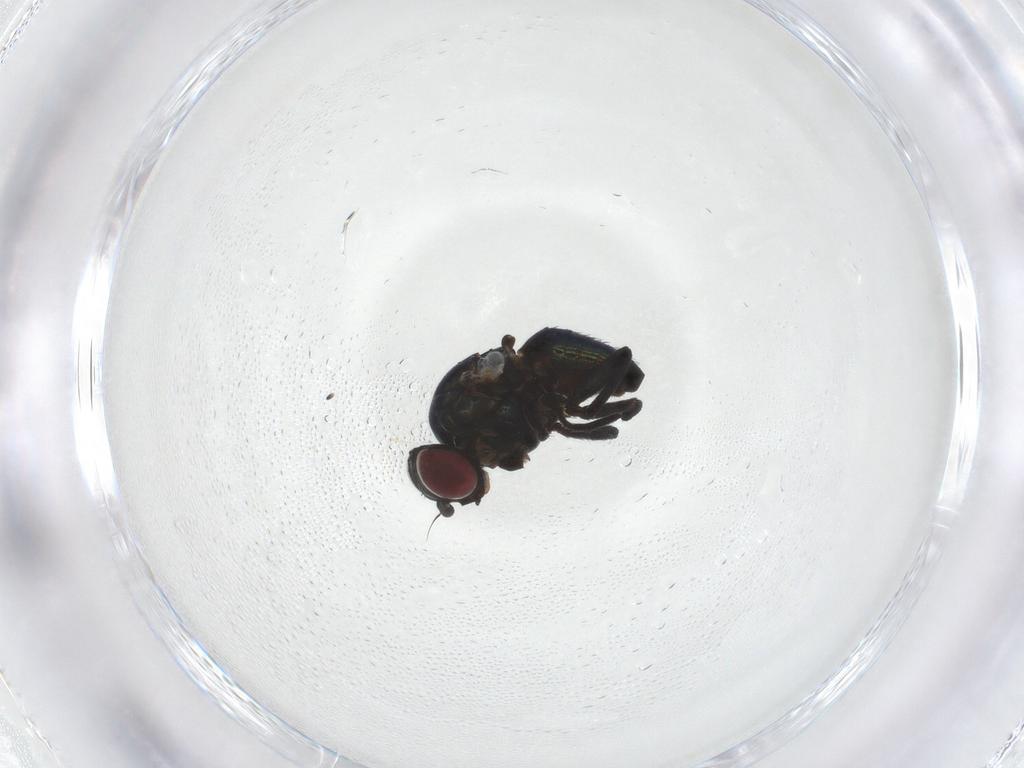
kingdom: Animalia
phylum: Arthropoda
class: Insecta
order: Diptera
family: Agromyzidae
